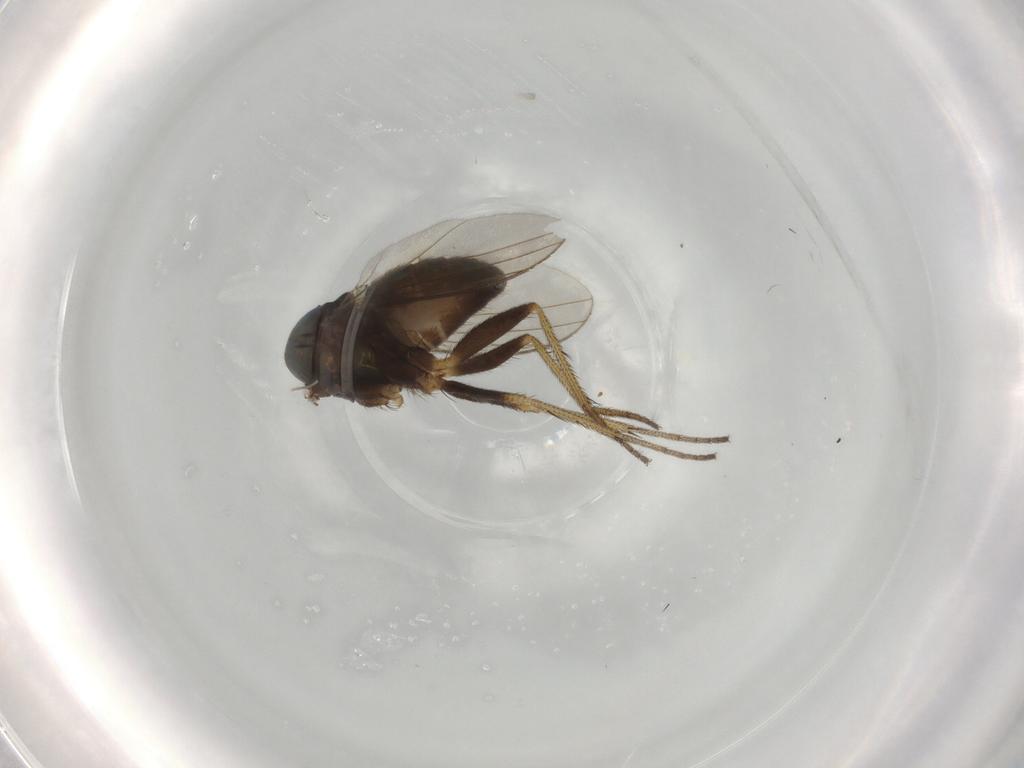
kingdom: Animalia
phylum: Arthropoda
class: Insecta
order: Diptera
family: Dolichopodidae
